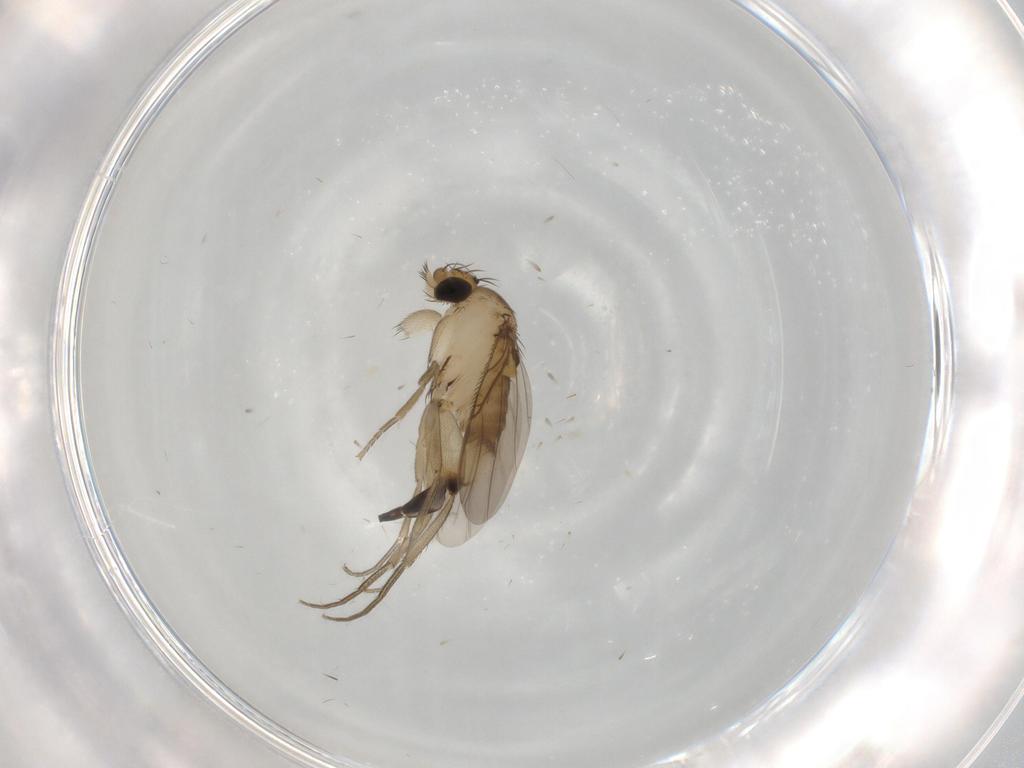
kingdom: Animalia
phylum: Arthropoda
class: Insecta
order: Diptera
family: Phoridae
